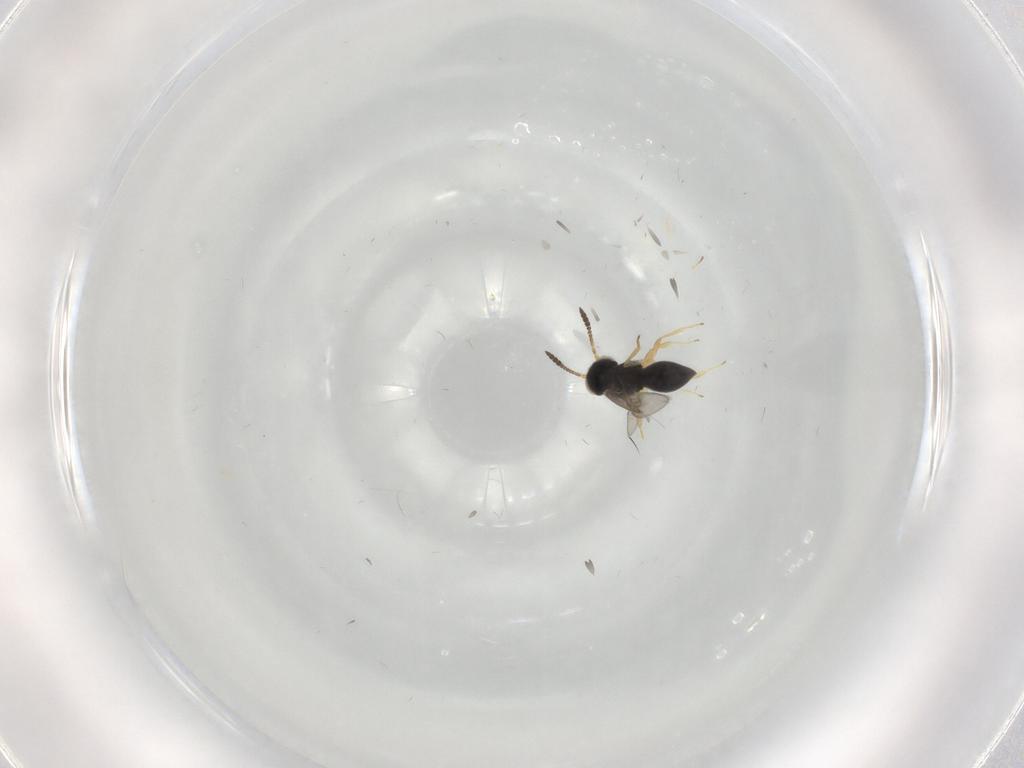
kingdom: Animalia
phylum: Arthropoda
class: Insecta
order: Hymenoptera
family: Scelionidae
